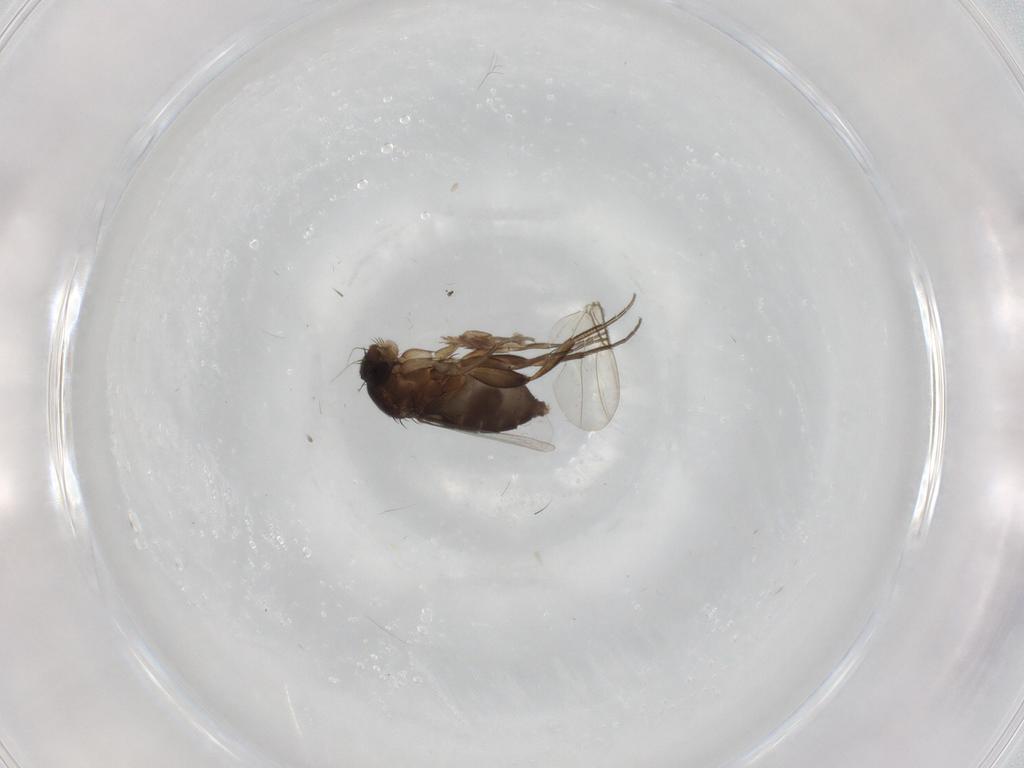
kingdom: Animalia
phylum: Arthropoda
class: Insecta
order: Diptera
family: Phoridae
